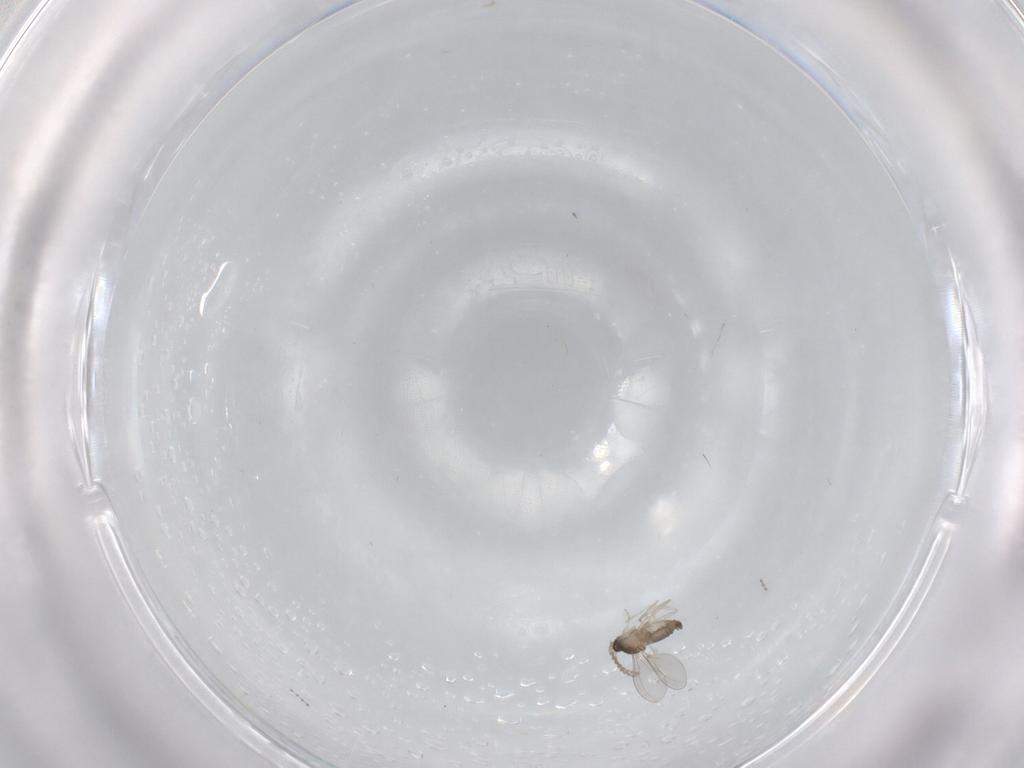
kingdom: Animalia
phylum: Arthropoda
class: Insecta
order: Diptera
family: Cecidomyiidae
